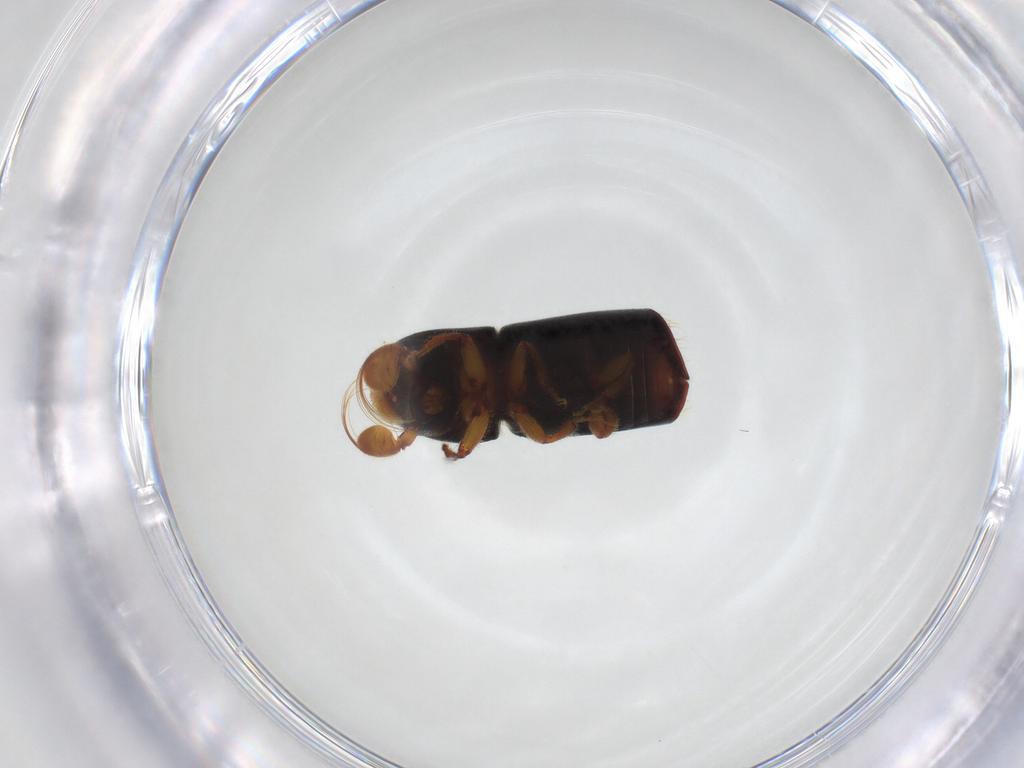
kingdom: Animalia
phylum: Arthropoda
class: Insecta
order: Coleoptera
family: Curculionidae
